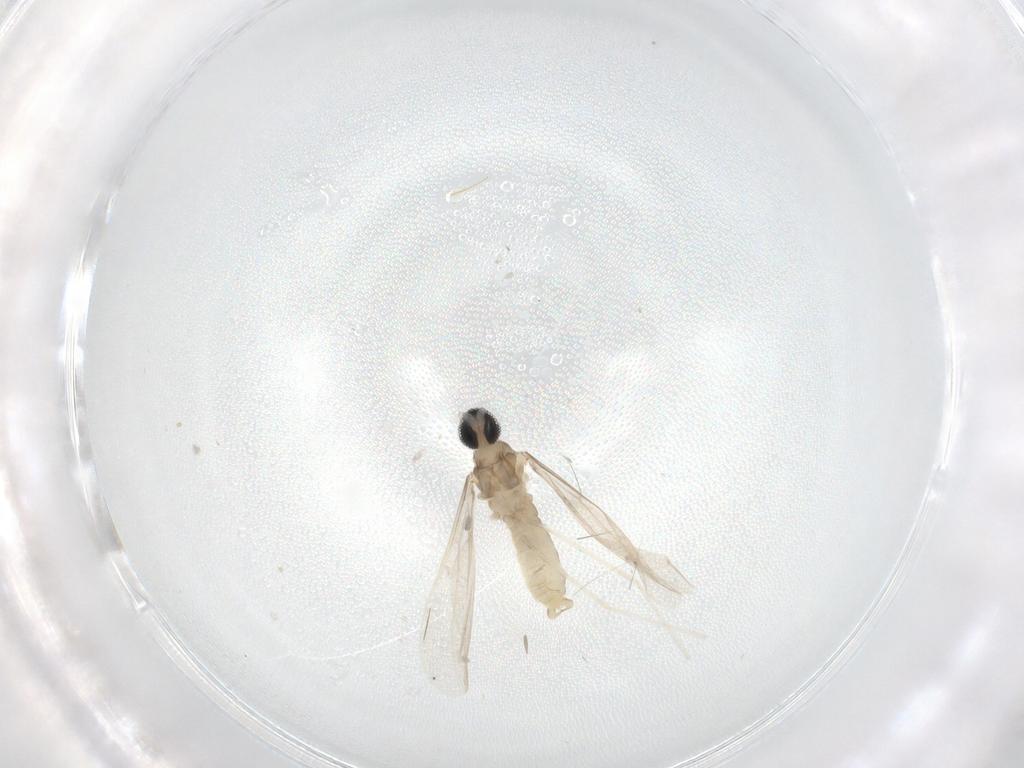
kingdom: Animalia
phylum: Arthropoda
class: Insecta
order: Diptera
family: Cecidomyiidae
